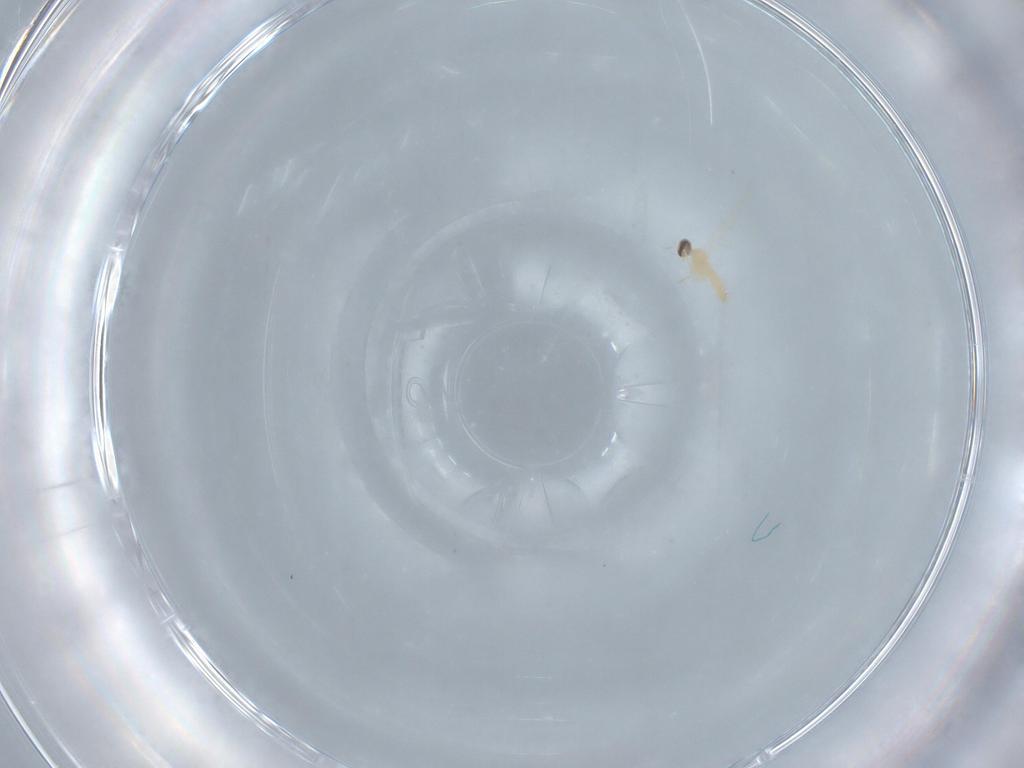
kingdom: Animalia
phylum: Arthropoda
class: Insecta
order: Diptera
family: Cecidomyiidae
